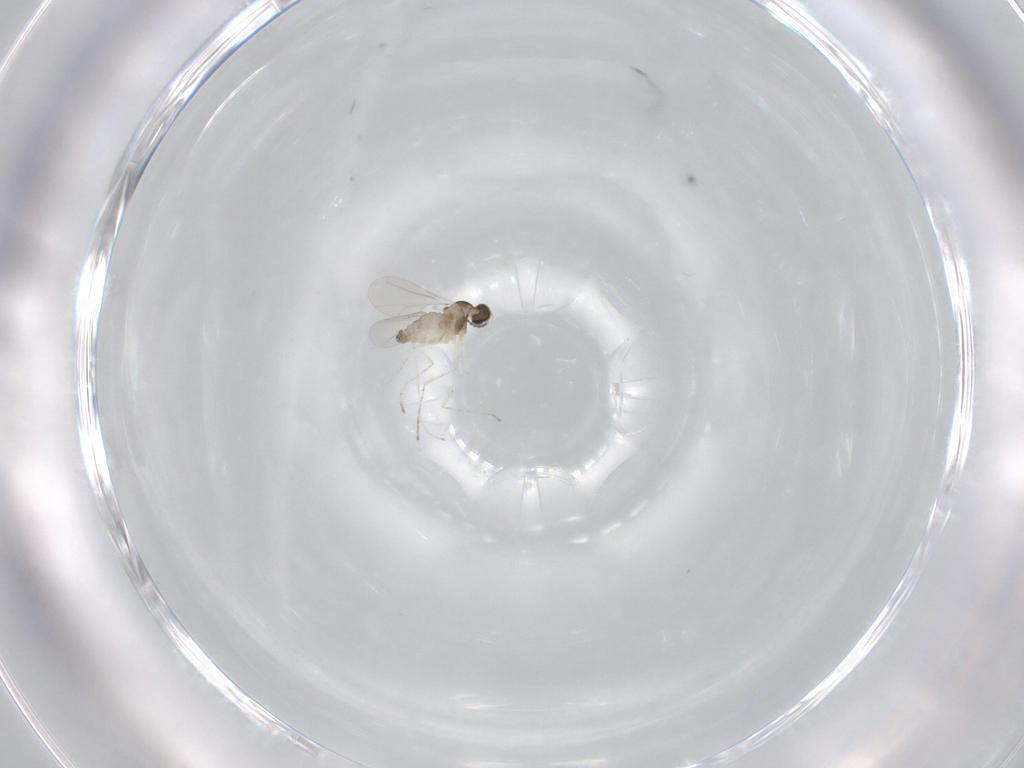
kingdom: Animalia
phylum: Arthropoda
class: Insecta
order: Diptera
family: Cecidomyiidae
